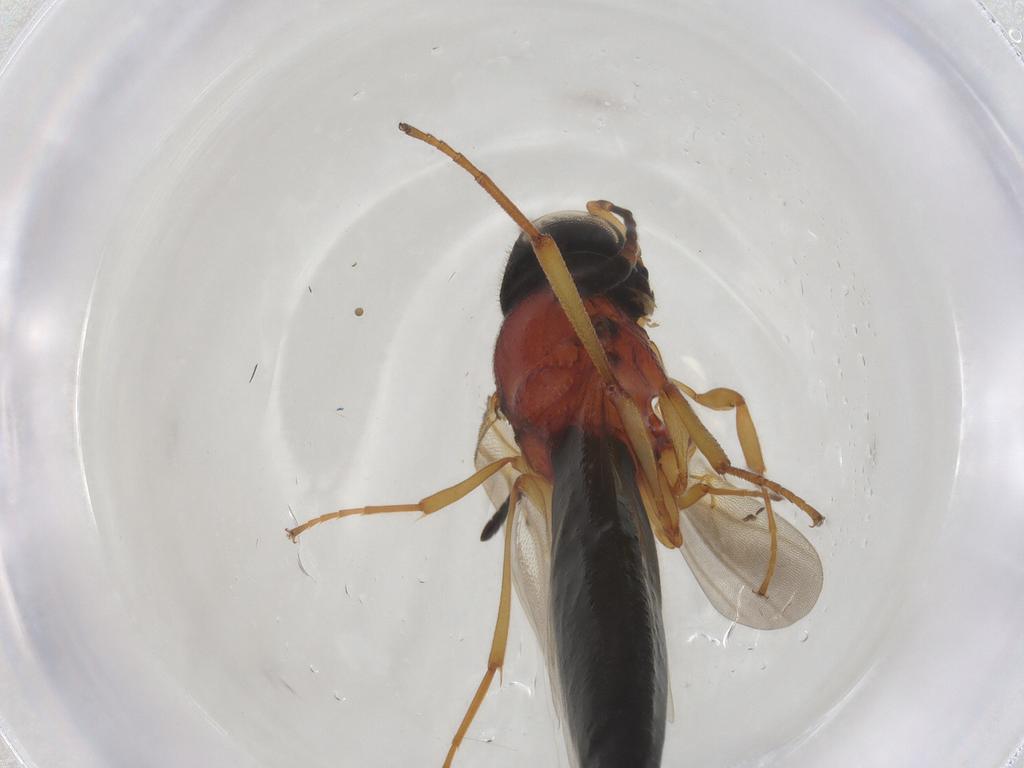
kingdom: Animalia
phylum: Arthropoda
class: Insecta
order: Hymenoptera
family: Scelionidae
